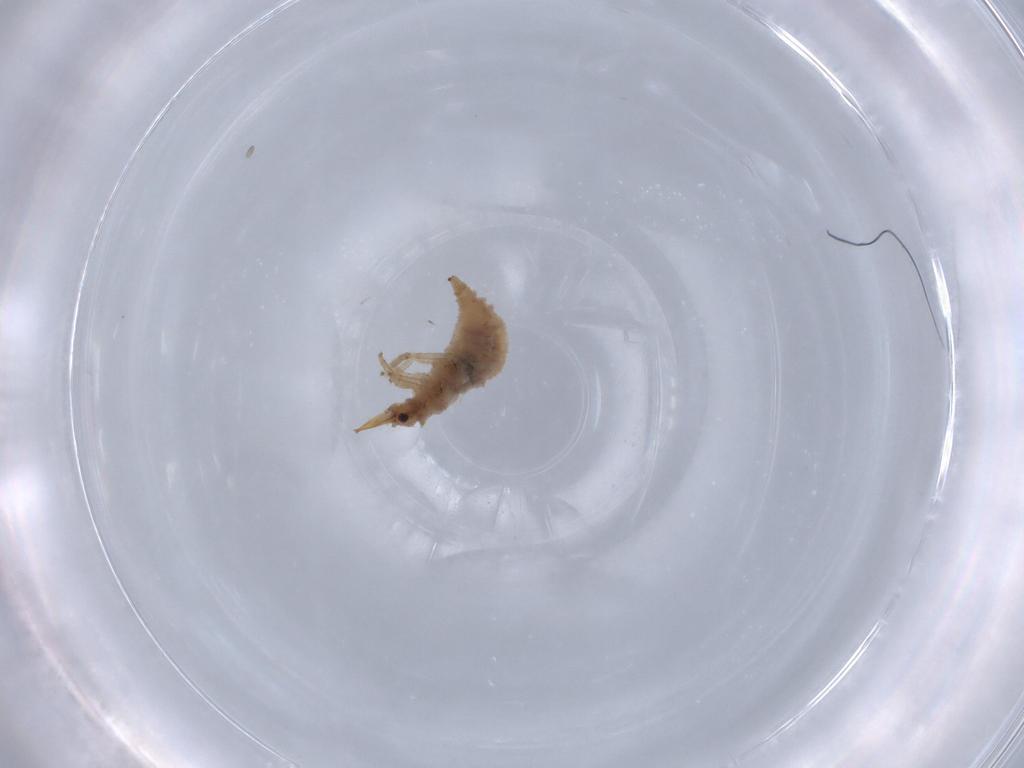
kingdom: Animalia
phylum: Arthropoda
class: Insecta
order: Neuroptera
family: Chrysopidae
